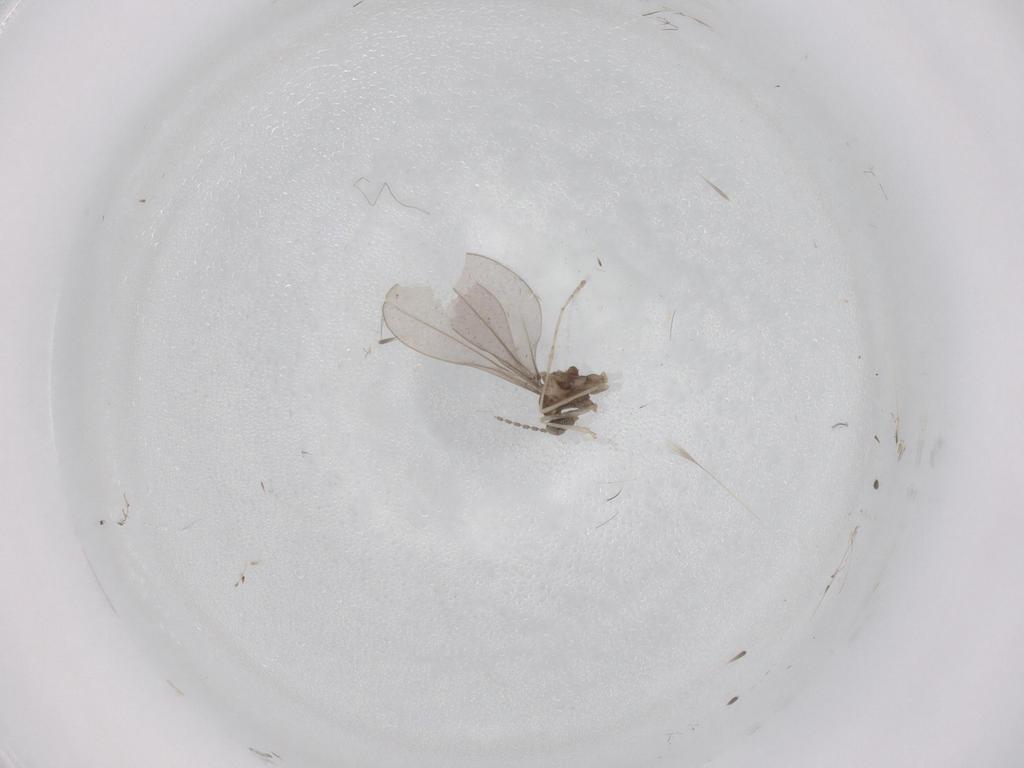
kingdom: Animalia
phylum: Arthropoda
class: Insecta
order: Diptera
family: Cecidomyiidae
